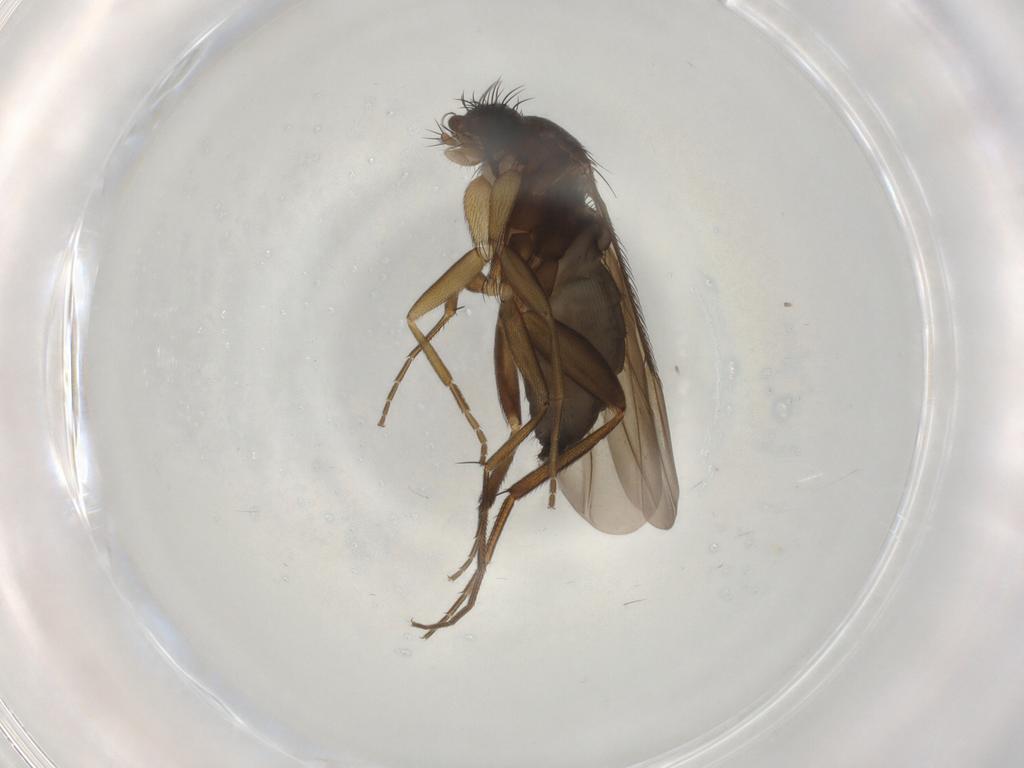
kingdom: Animalia
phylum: Arthropoda
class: Insecta
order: Diptera
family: Phoridae
